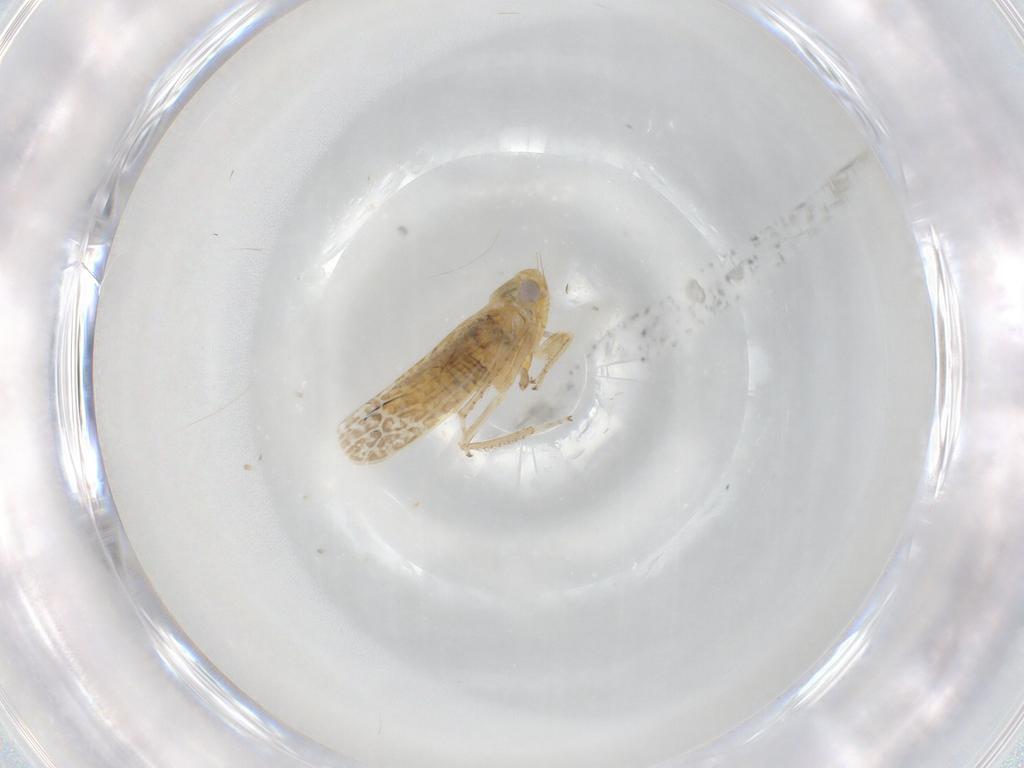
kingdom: Animalia
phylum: Arthropoda
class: Insecta
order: Hemiptera
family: Cicadellidae
